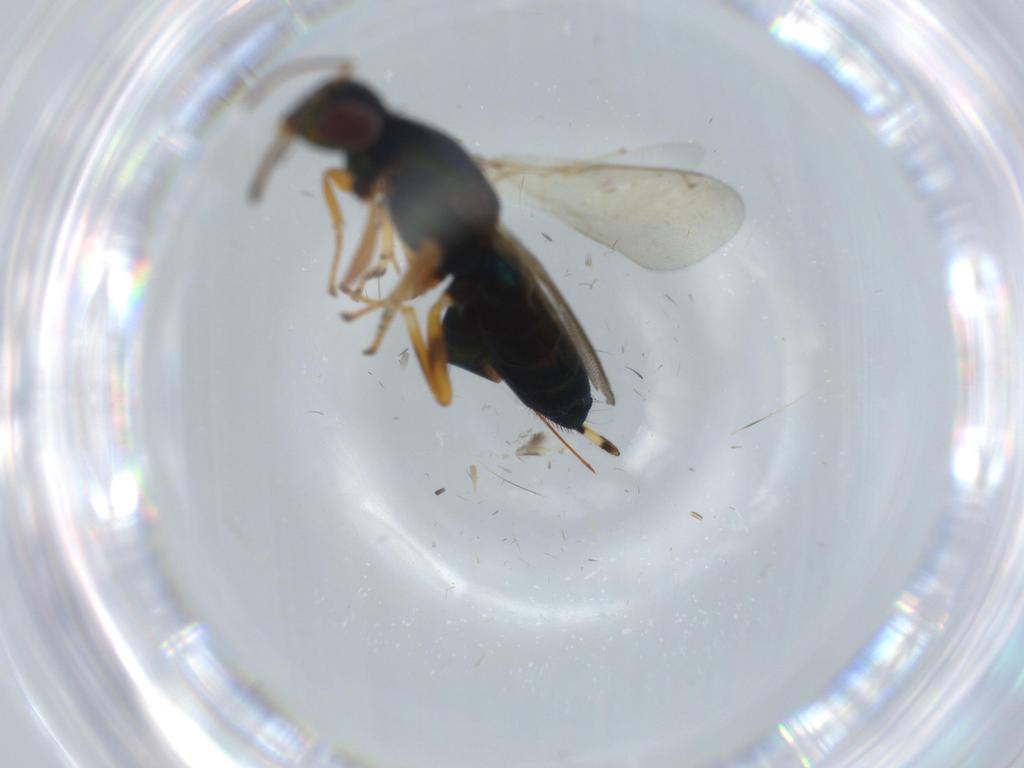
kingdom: Animalia
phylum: Arthropoda
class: Insecta
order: Hymenoptera
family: Eupelmidae
